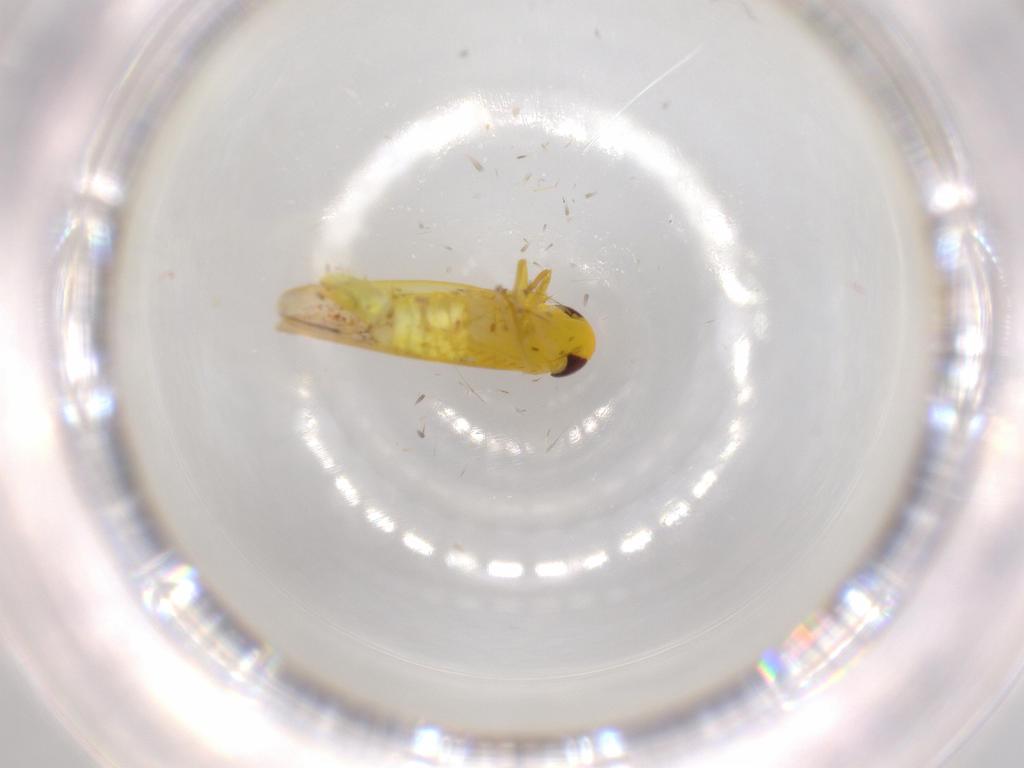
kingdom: Animalia
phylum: Arthropoda
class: Insecta
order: Hemiptera
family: Cicadellidae
